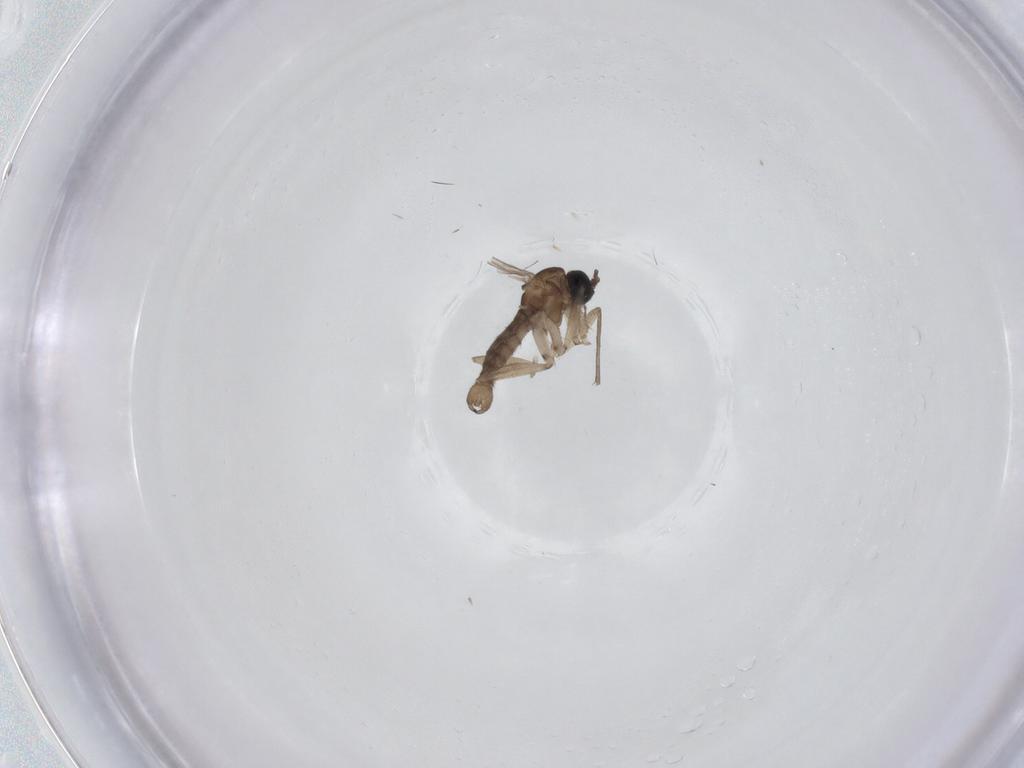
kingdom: Animalia
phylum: Arthropoda
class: Insecta
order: Diptera
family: Sciaridae
